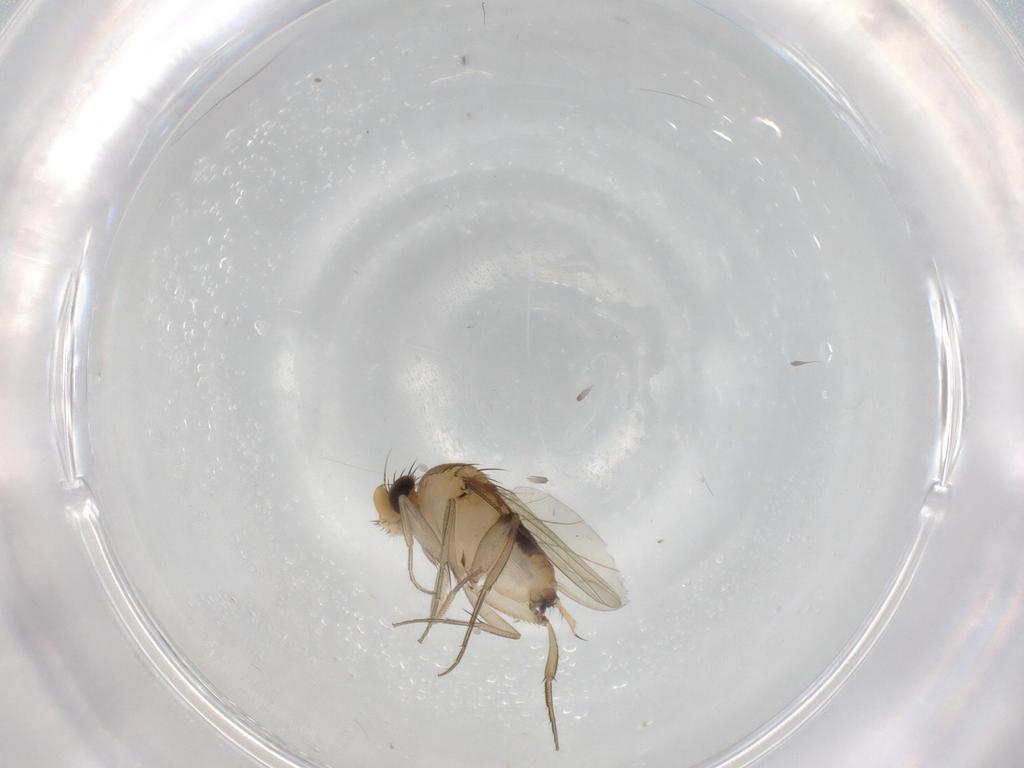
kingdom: Animalia
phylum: Arthropoda
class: Insecta
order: Diptera
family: Phoridae
